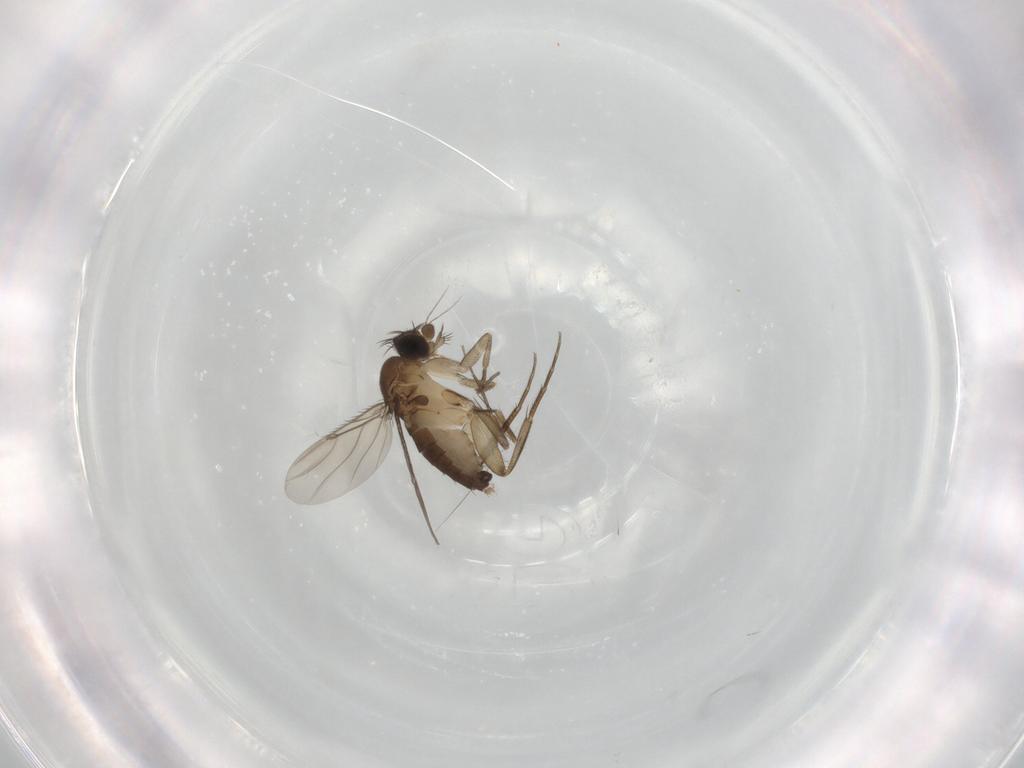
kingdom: Animalia
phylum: Arthropoda
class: Insecta
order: Diptera
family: Phoridae
